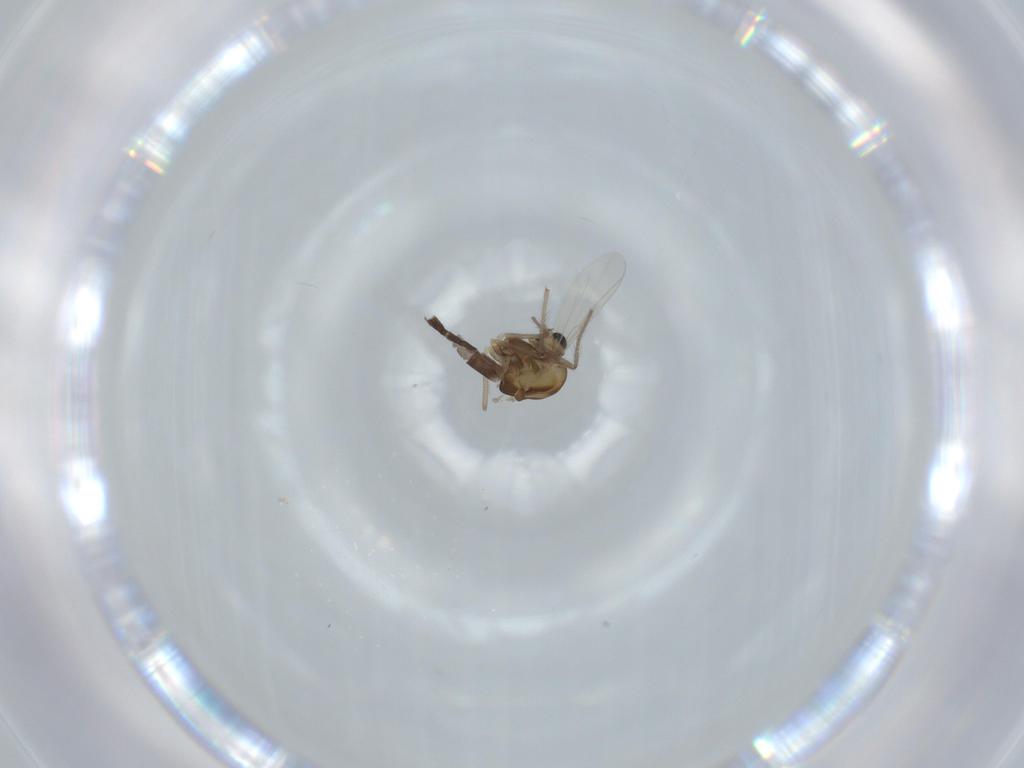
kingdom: Animalia
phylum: Arthropoda
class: Insecta
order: Diptera
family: Chironomidae
